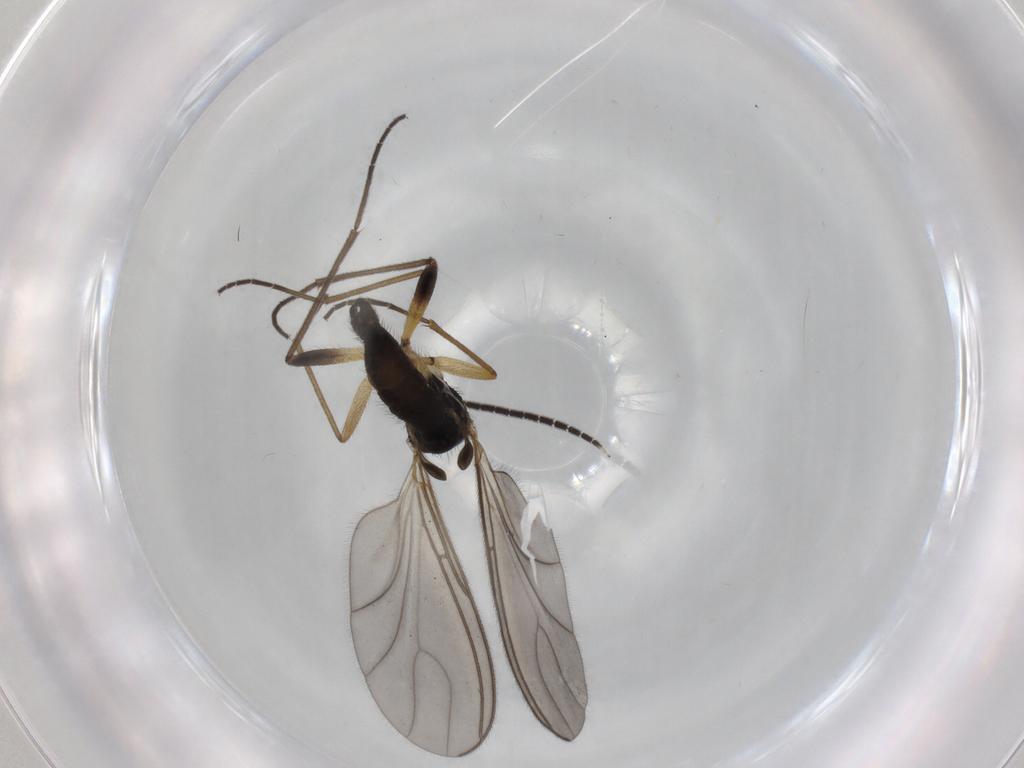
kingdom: Animalia
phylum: Arthropoda
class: Insecta
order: Diptera
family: Sciaridae
